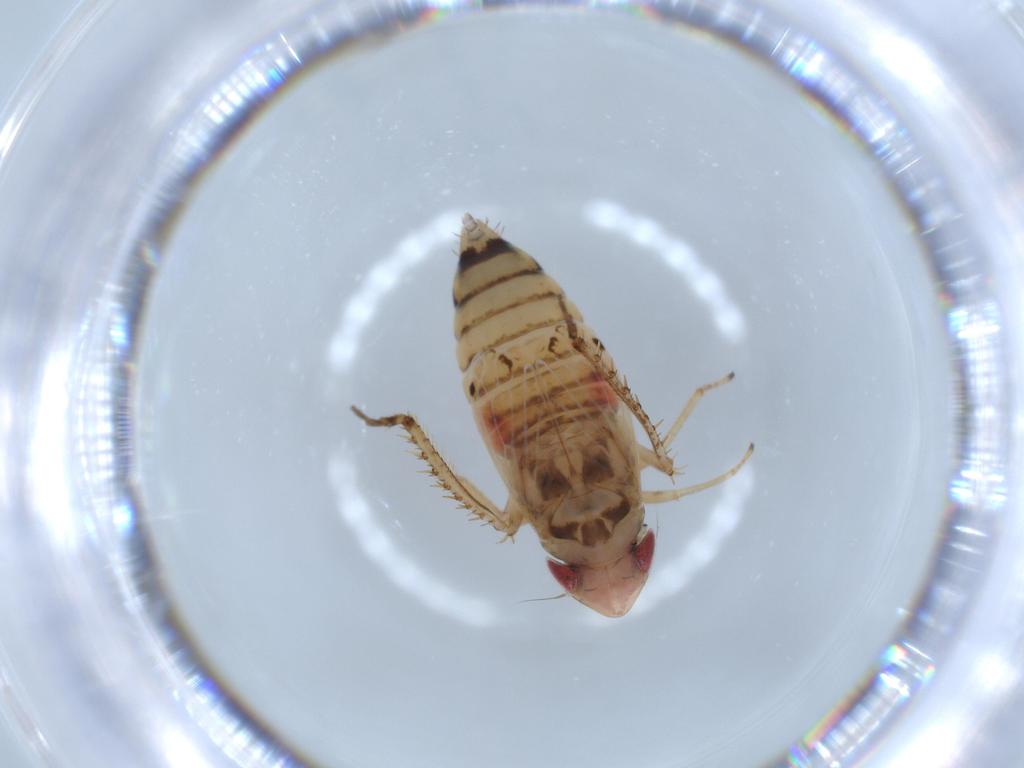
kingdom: Animalia
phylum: Arthropoda
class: Insecta
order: Hemiptera
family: Cicadellidae
